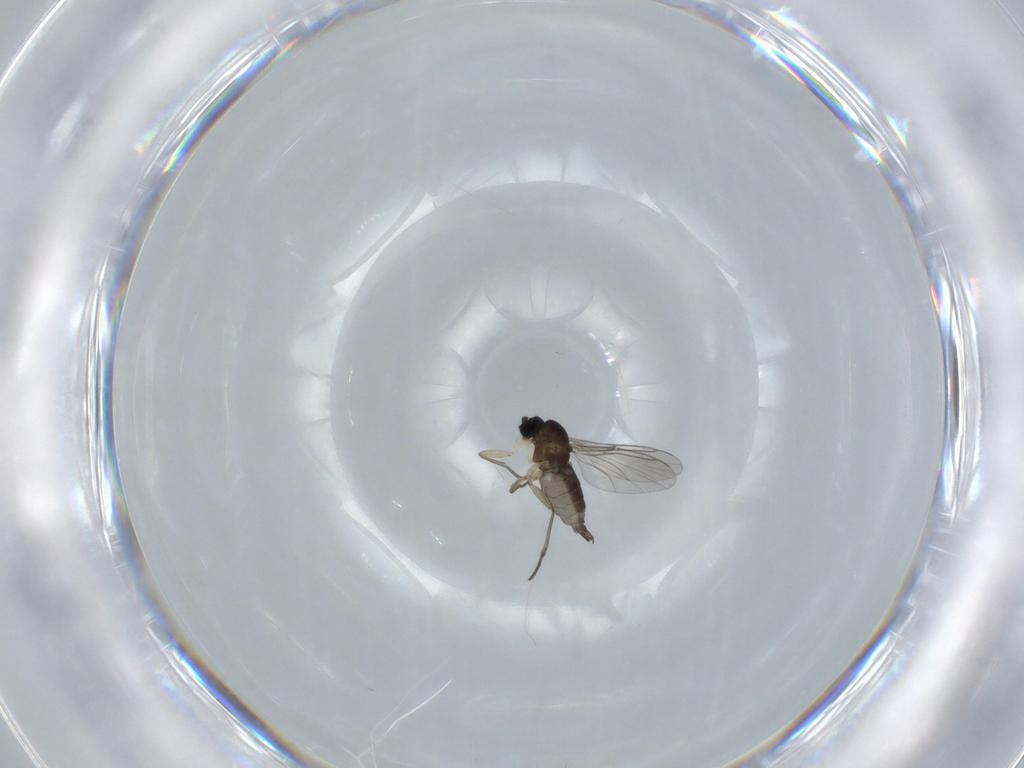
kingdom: Animalia
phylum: Arthropoda
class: Insecta
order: Diptera
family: Sciaridae
